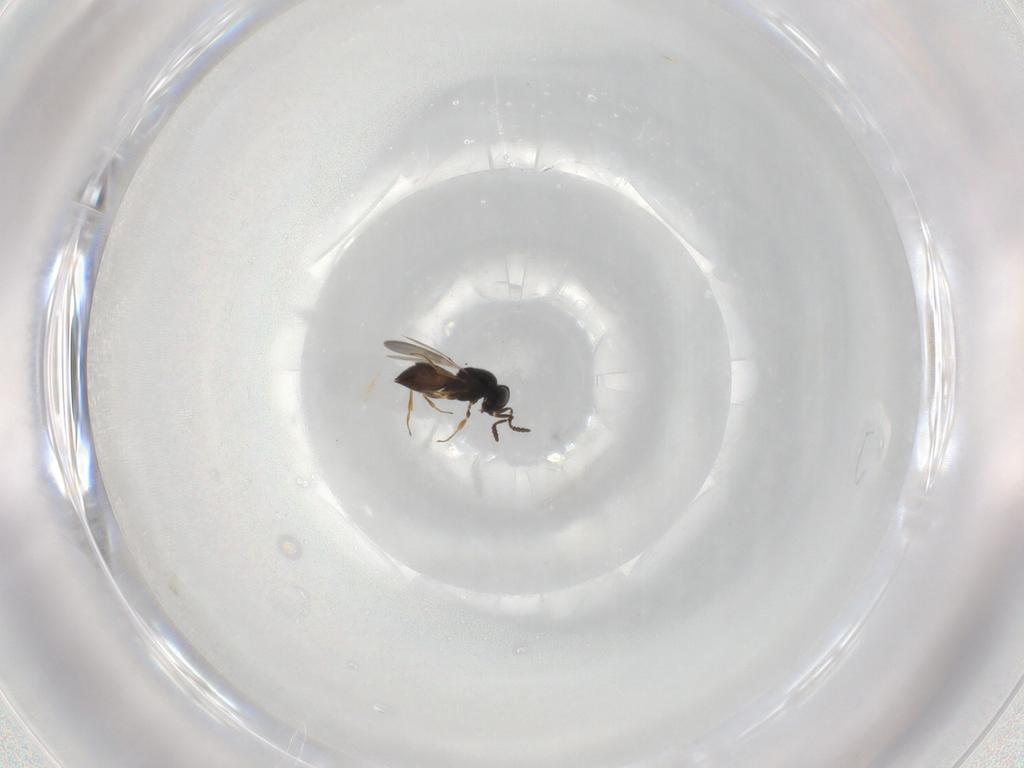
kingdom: Animalia
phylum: Arthropoda
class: Insecta
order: Hymenoptera
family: Scelionidae
